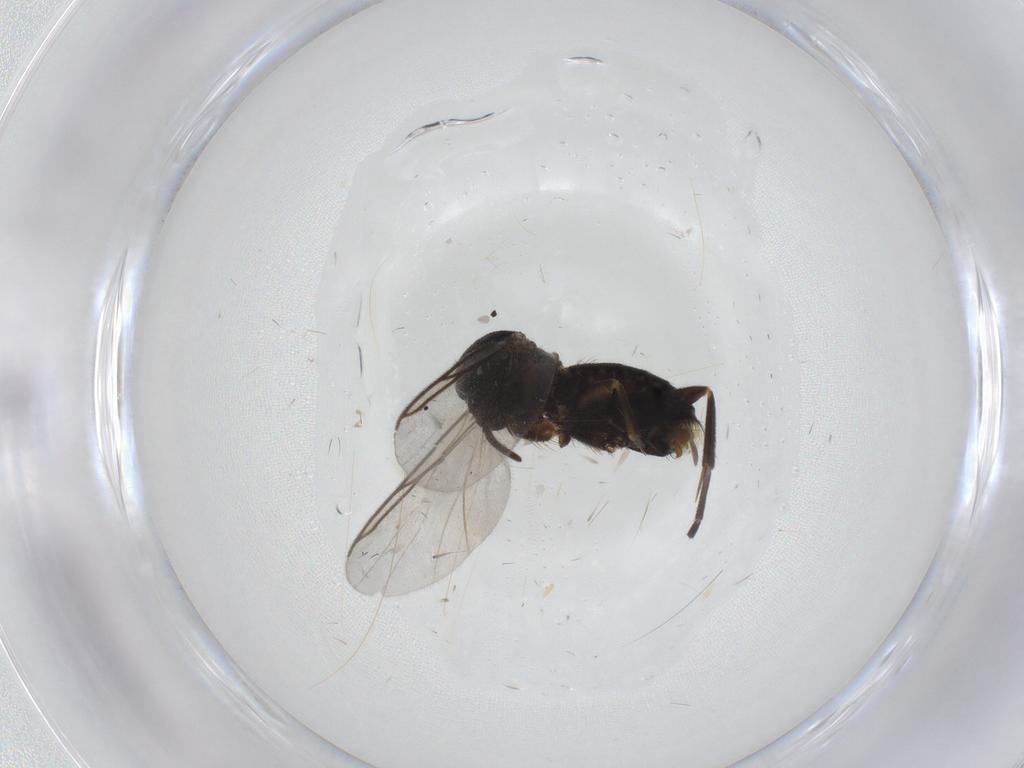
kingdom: Animalia
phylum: Arthropoda
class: Insecta
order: Diptera
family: Tipulidae
